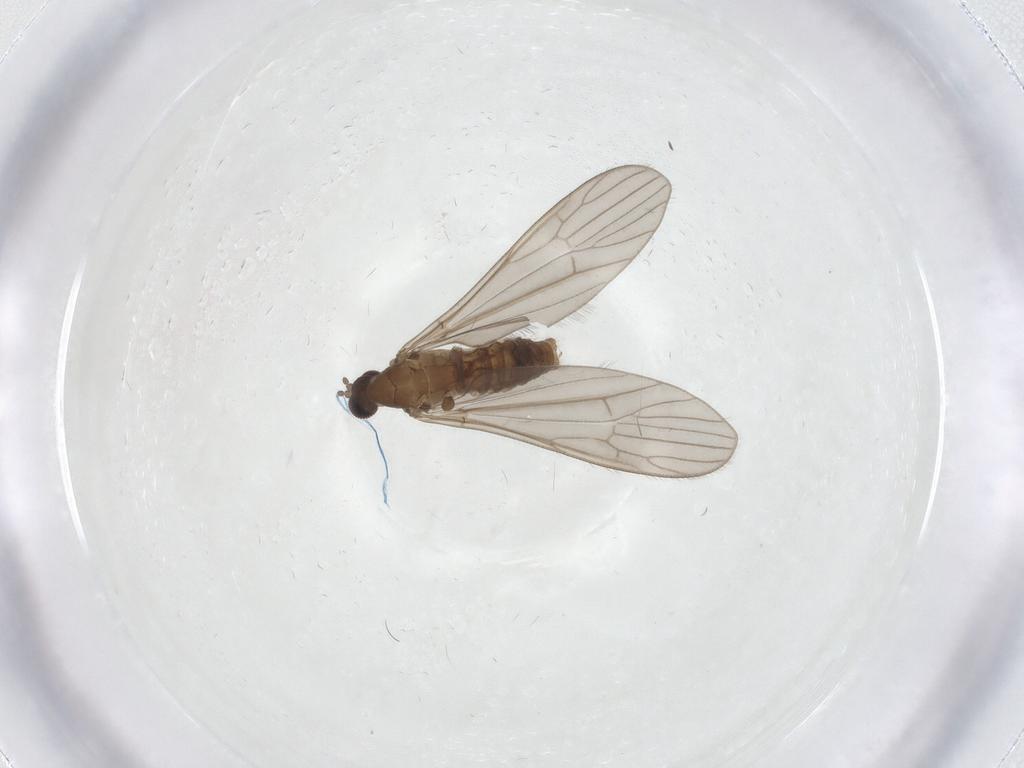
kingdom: Animalia
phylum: Arthropoda
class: Insecta
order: Diptera
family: Limoniidae
